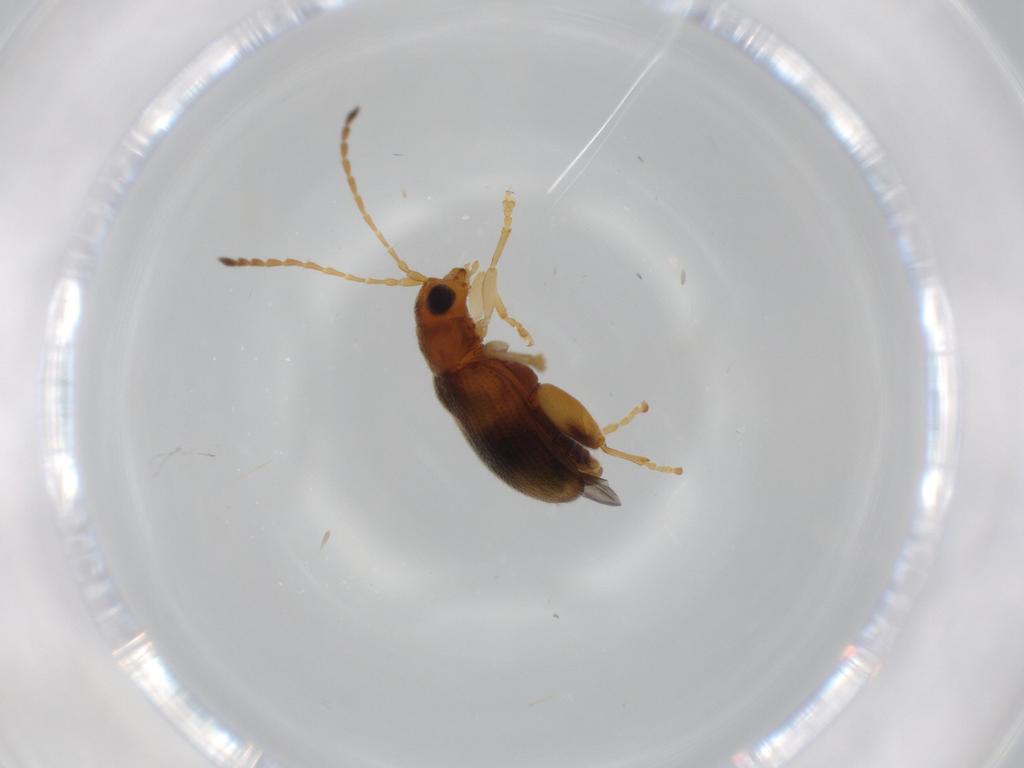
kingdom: Animalia
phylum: Arthropoda
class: Insecta
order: Coleoptera
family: Chrysomelidae
